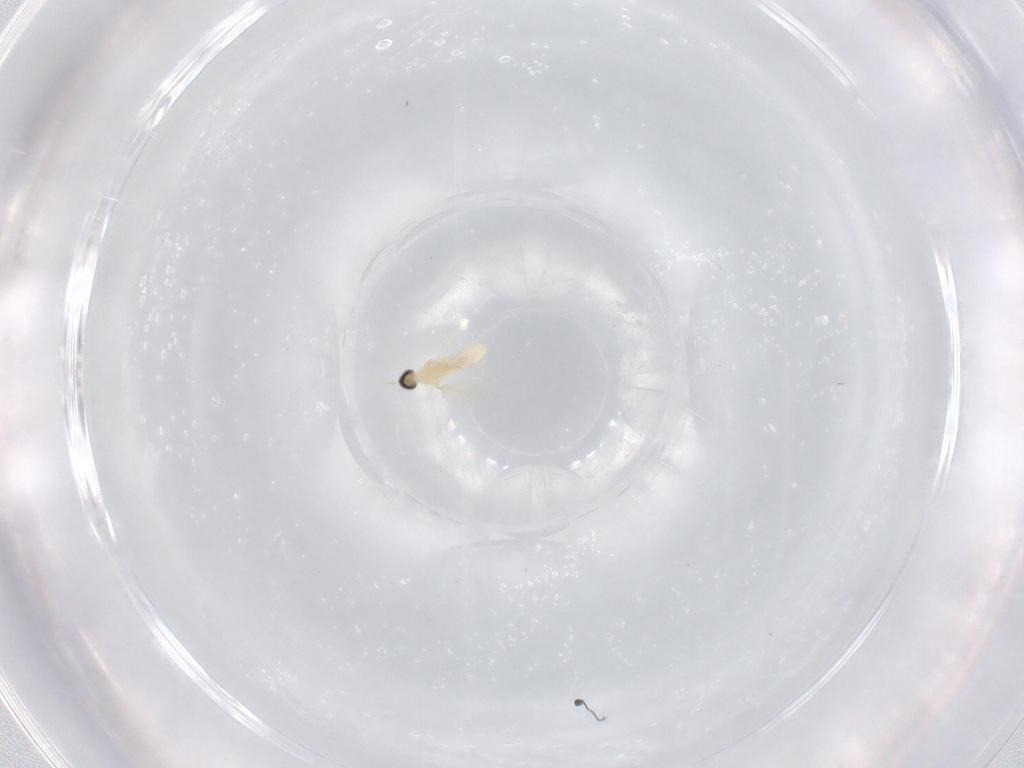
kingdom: Animalia
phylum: Arthropoda
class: Insecta
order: Diptera
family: Cecidomyiidae
